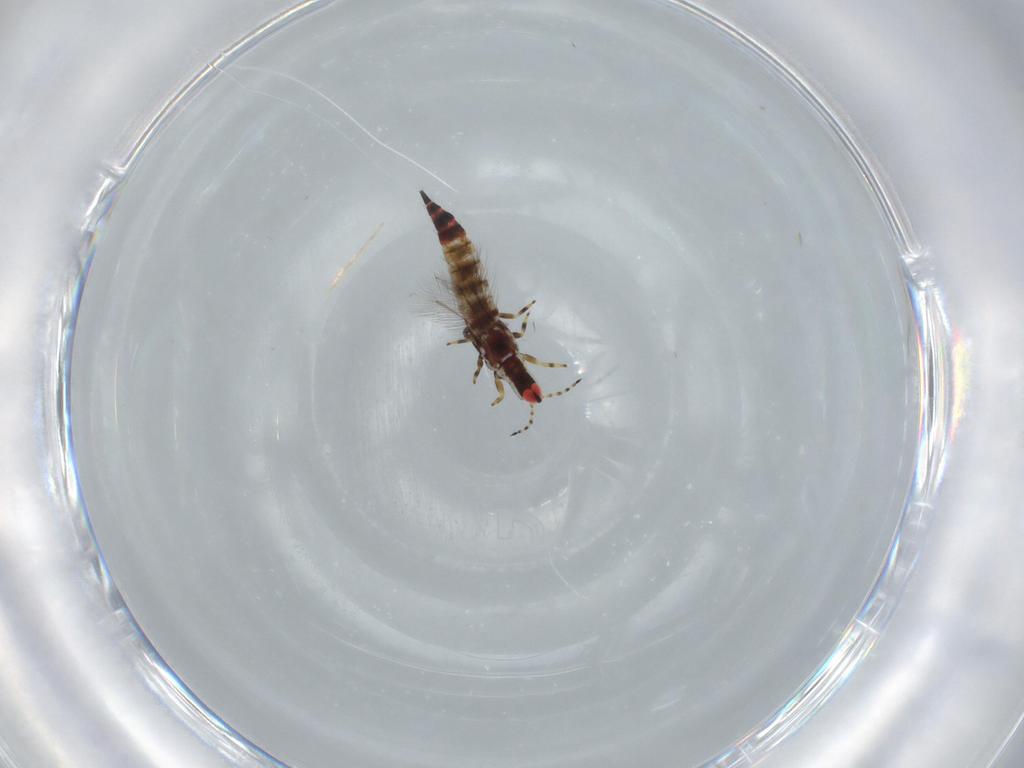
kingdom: Animalia
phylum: Arthropoda
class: Insecta
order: Thysanoptera
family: Phlaeothripidae
